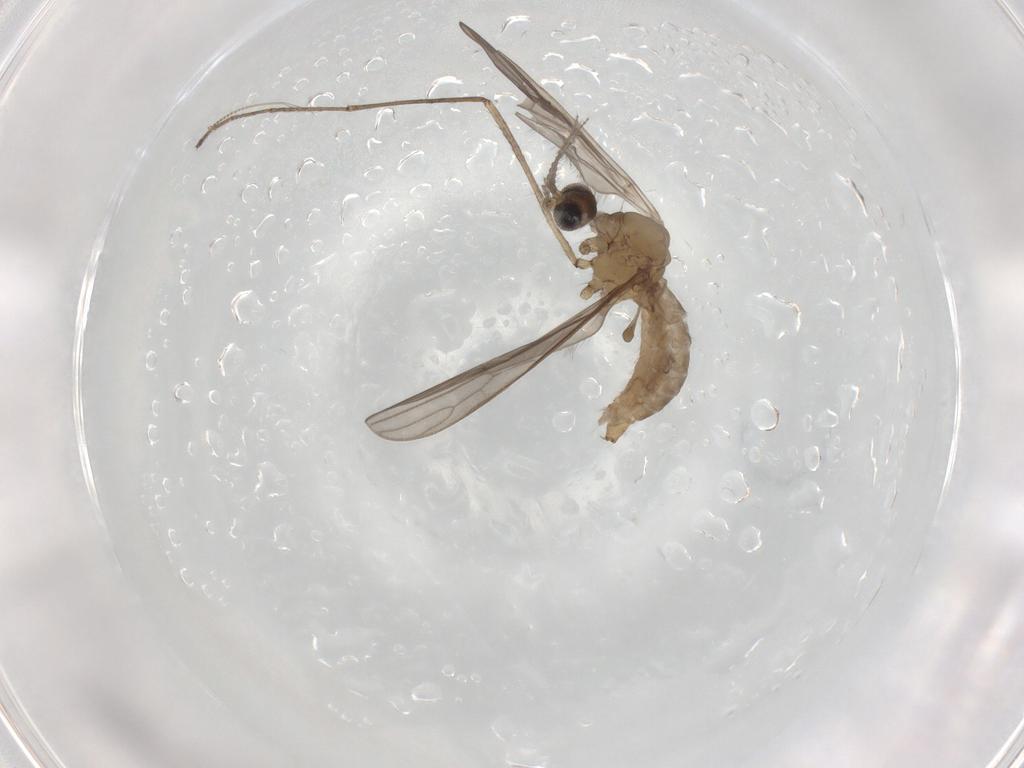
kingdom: Animalia
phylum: Arthropoda
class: Insecta
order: Diptera
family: Limoniidae
